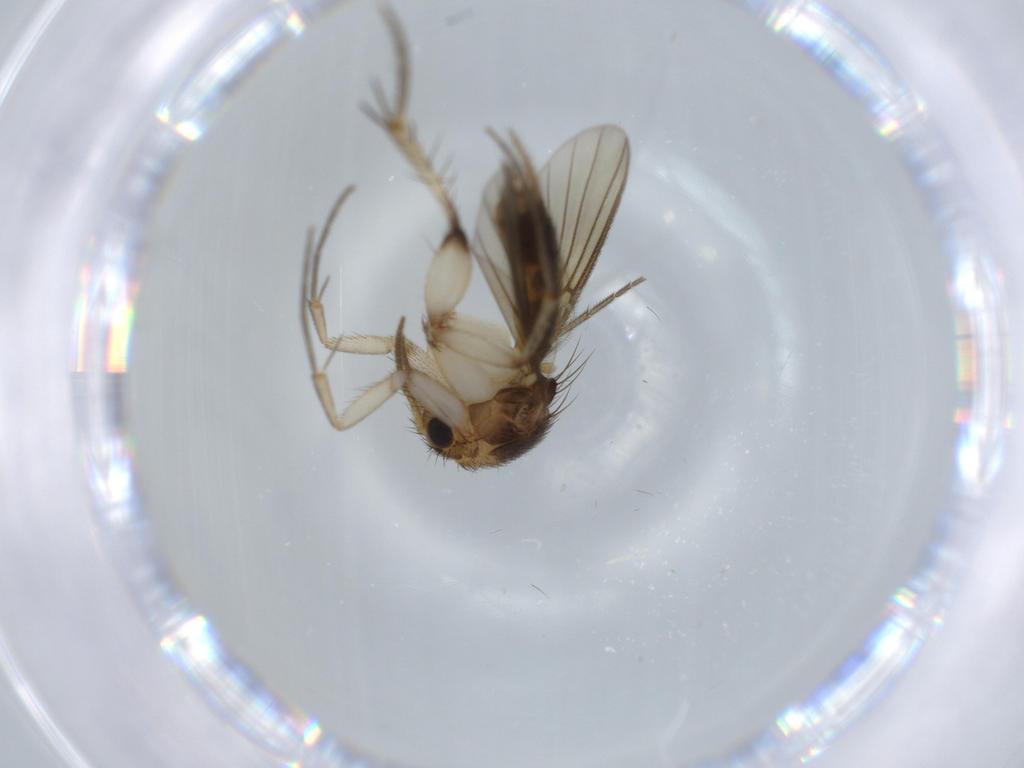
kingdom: Animalia
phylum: Arthropoda
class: Insecta
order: Diptera
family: Mycetophilidae
